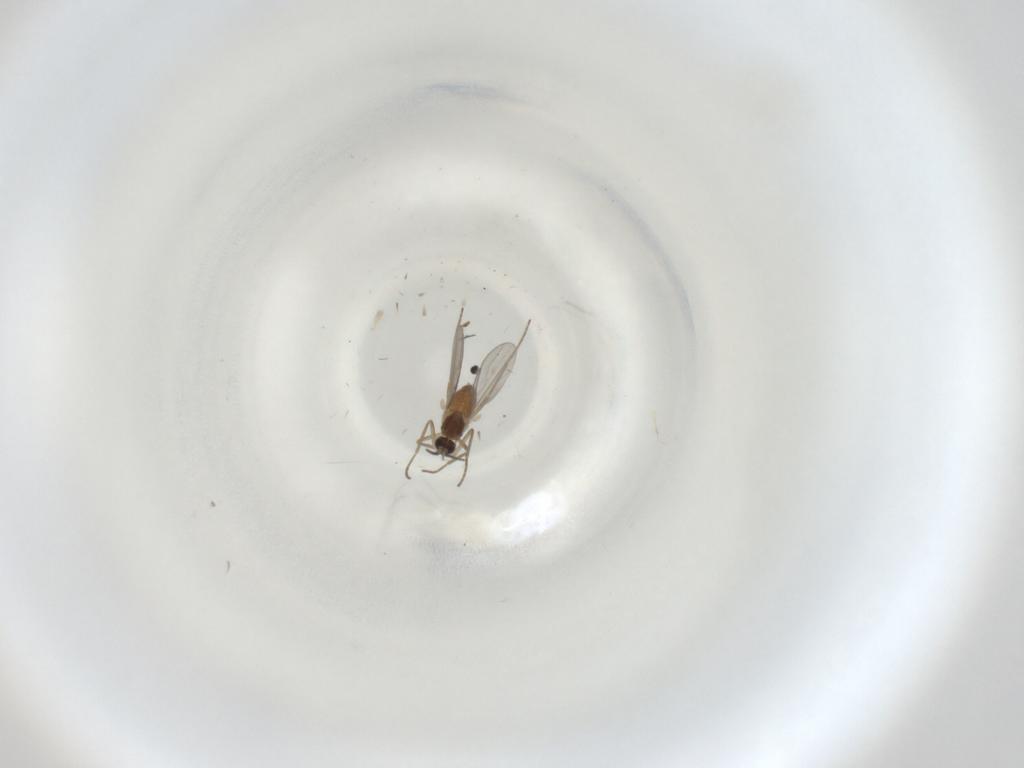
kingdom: Animalia
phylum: Arthropoda
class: Insecta
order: Diptera
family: Cecidomyiidae
